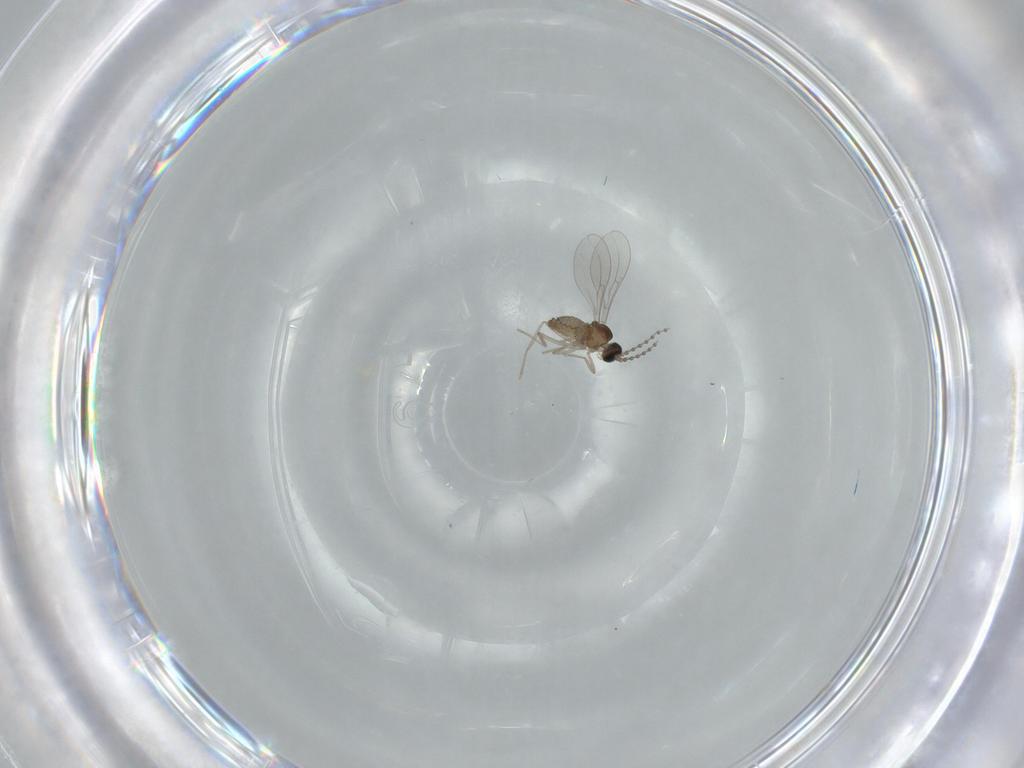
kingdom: Animalia
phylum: Arthropoda
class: Insecta
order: Diptera
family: Cecidomyiidae
